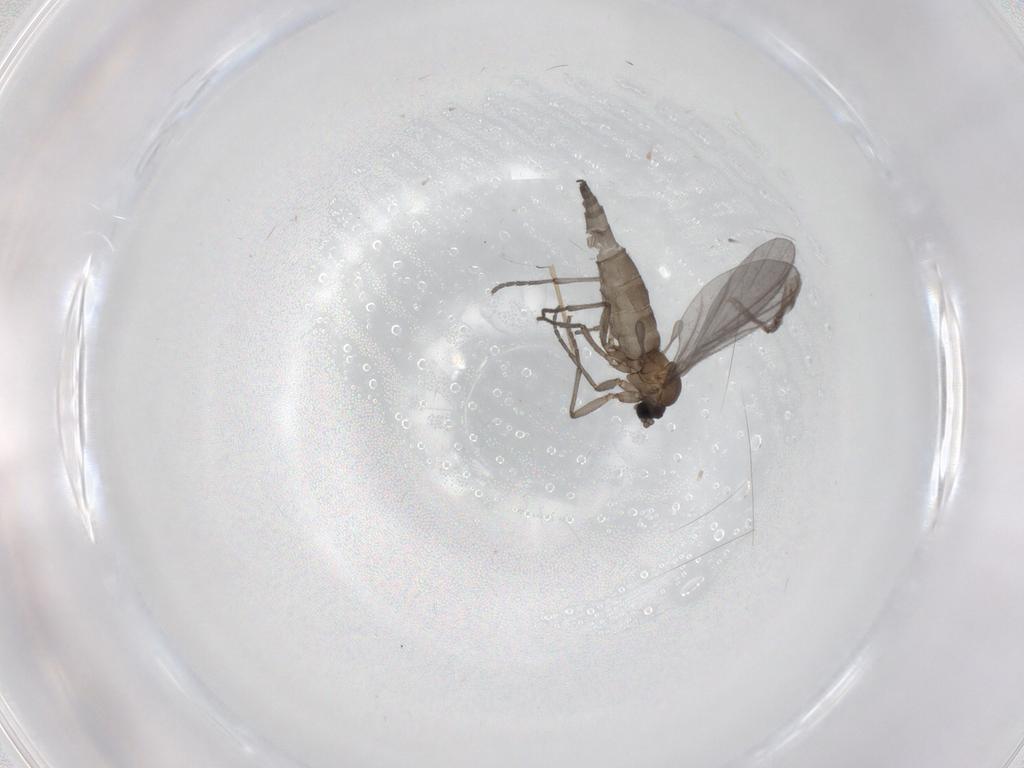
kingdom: Animalia
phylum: Arthropoda
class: Insecta
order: Diptera
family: Sciaridae
